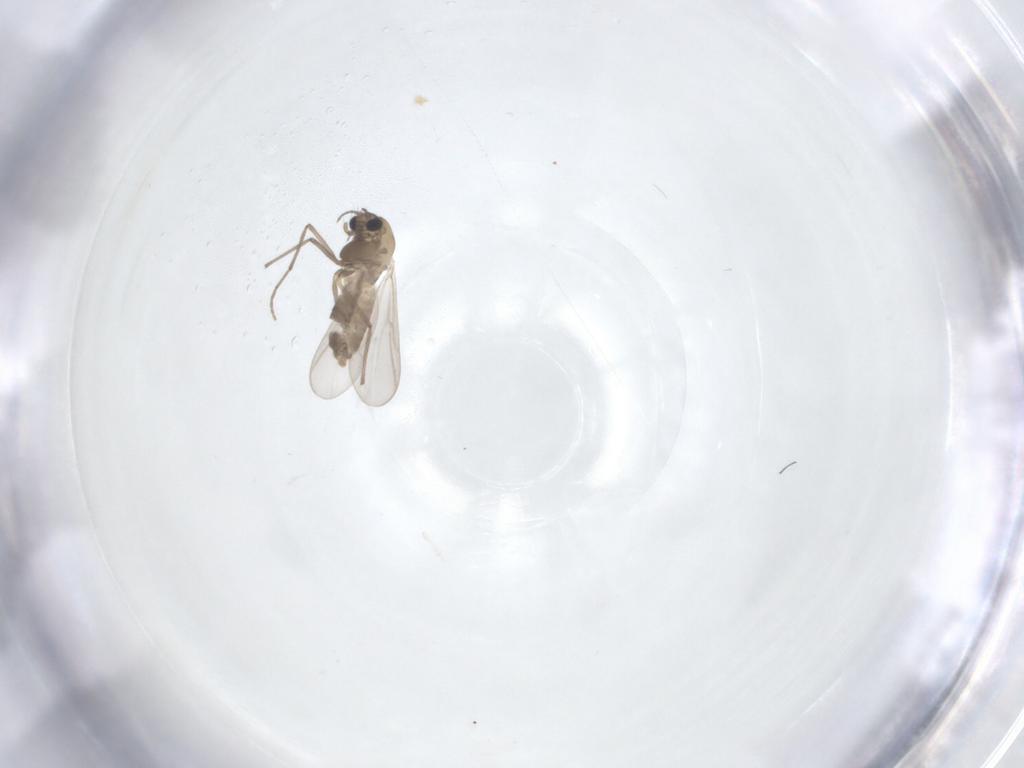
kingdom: Animalia
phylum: Arthropoda
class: Insecta
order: Diptera
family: Chironomidae
